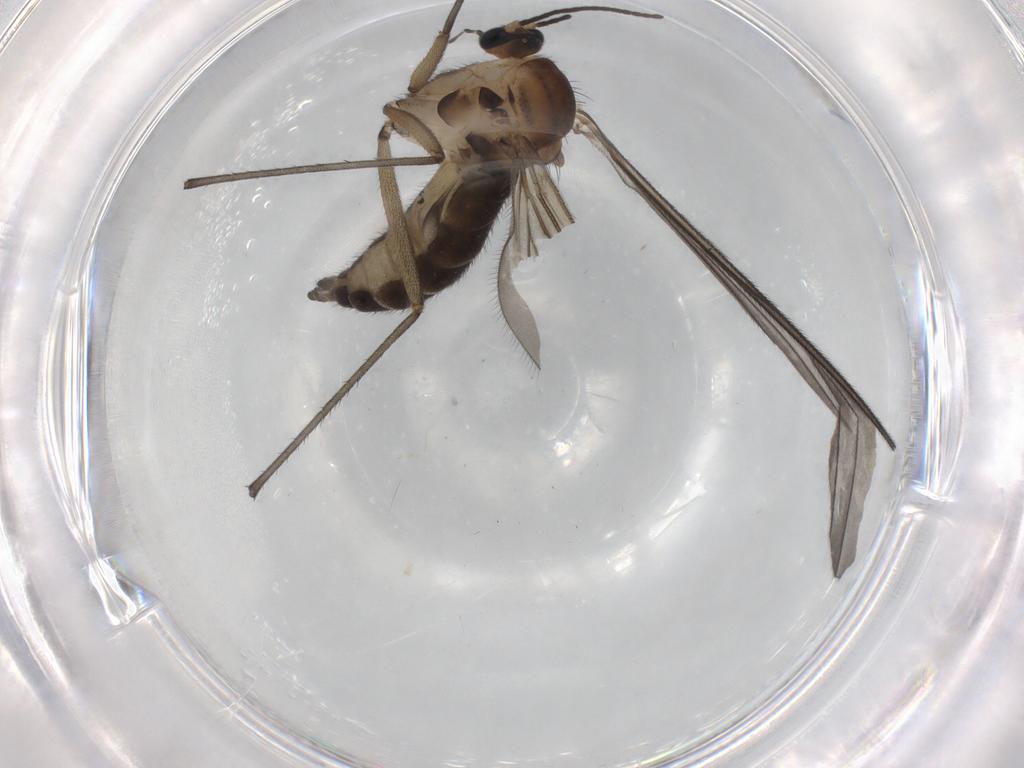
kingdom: Animalia
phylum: Arthropoda
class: Insecta
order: Diptera
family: Sciaridae
